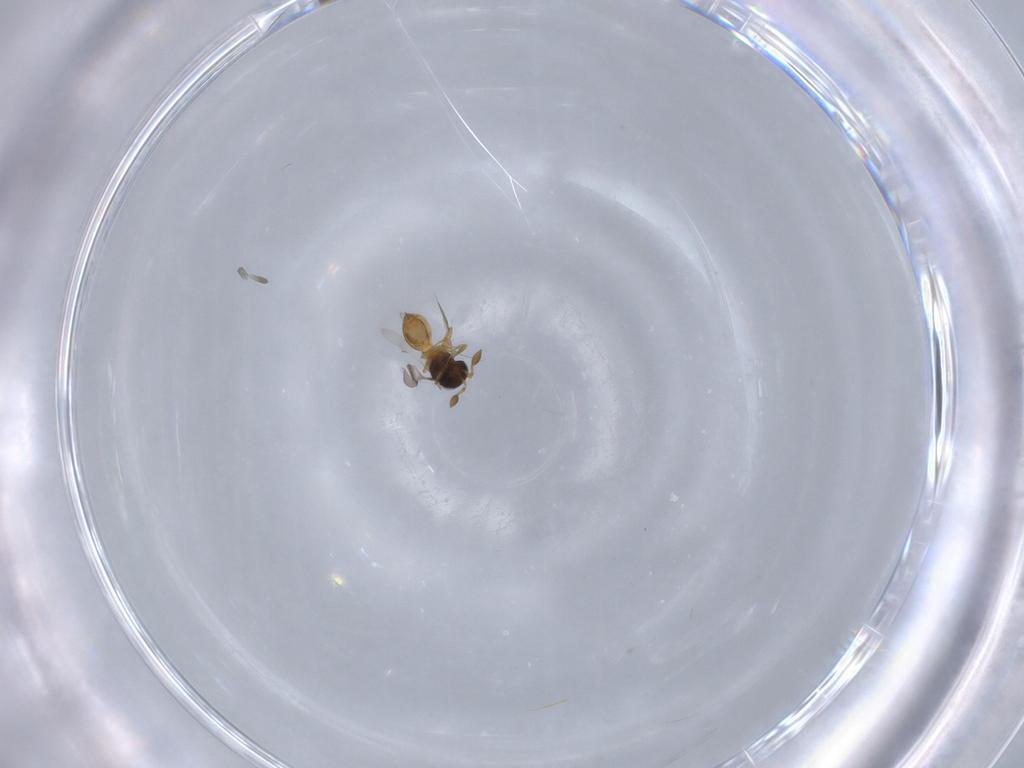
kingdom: Animalia
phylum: Arthropoda
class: Insecta
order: Hymenoptera
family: Scelionidae
